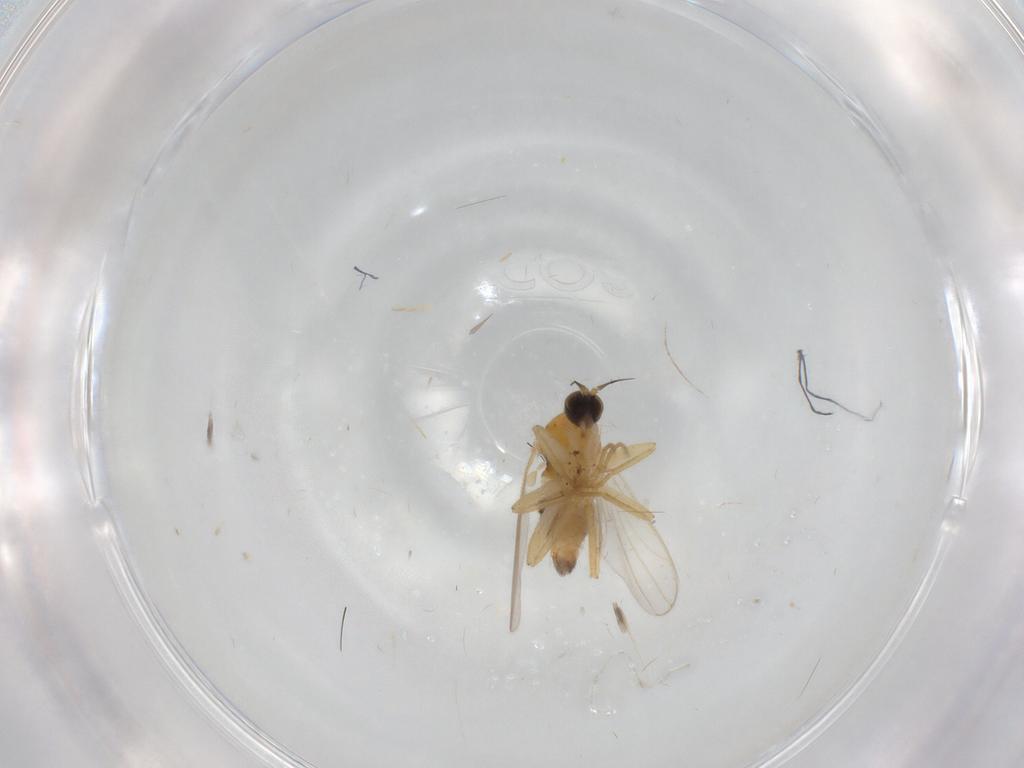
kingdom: Animalia
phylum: Arthropoda
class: Insecta
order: Diptera
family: Hybotidae
